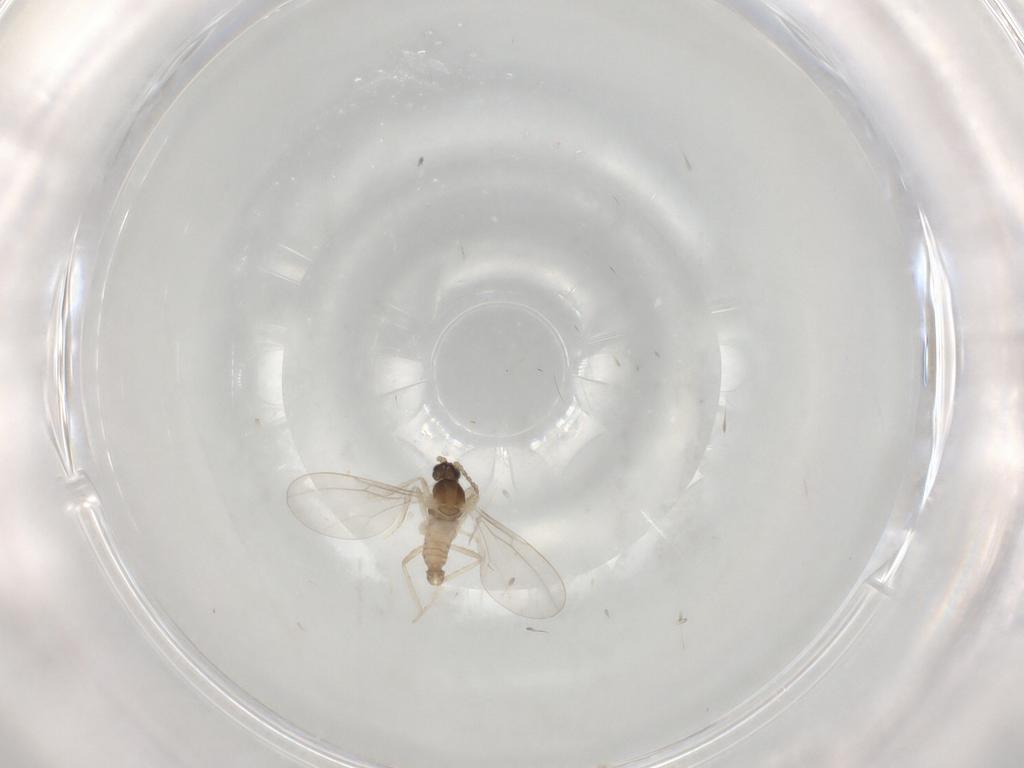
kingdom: Animalia
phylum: Arthropoda
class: Insecta
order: Diptera
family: Cecidomyiidae
